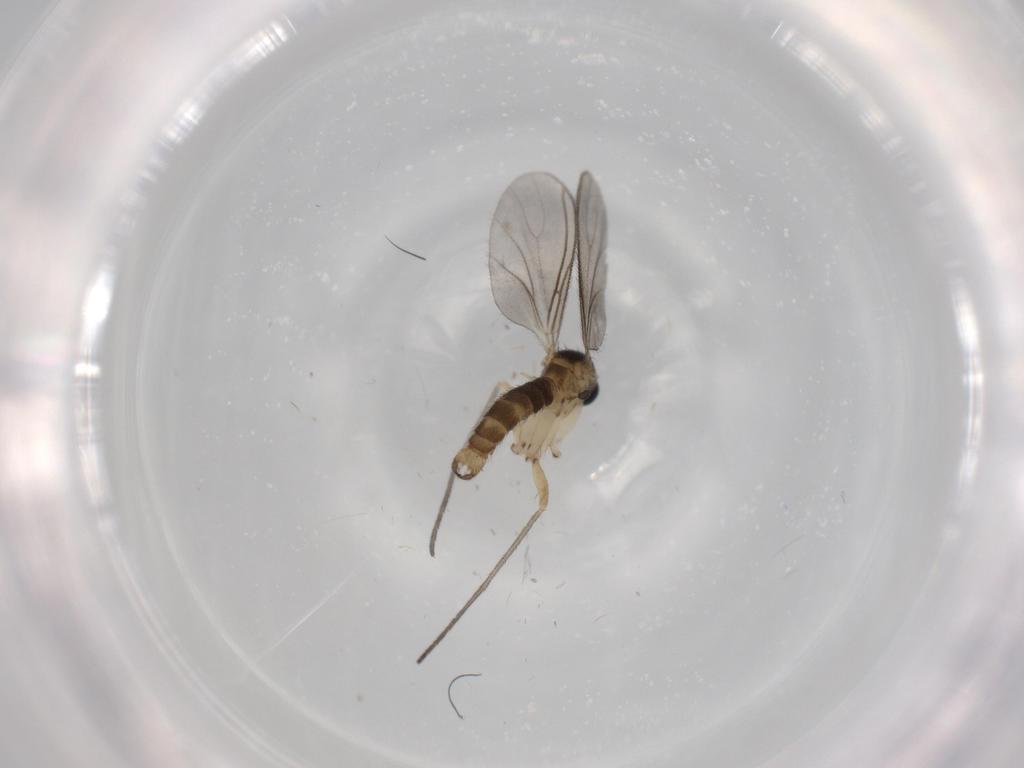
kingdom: Animalia
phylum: Arthropoda
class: Insecta
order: Diptera
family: Sciaridae
